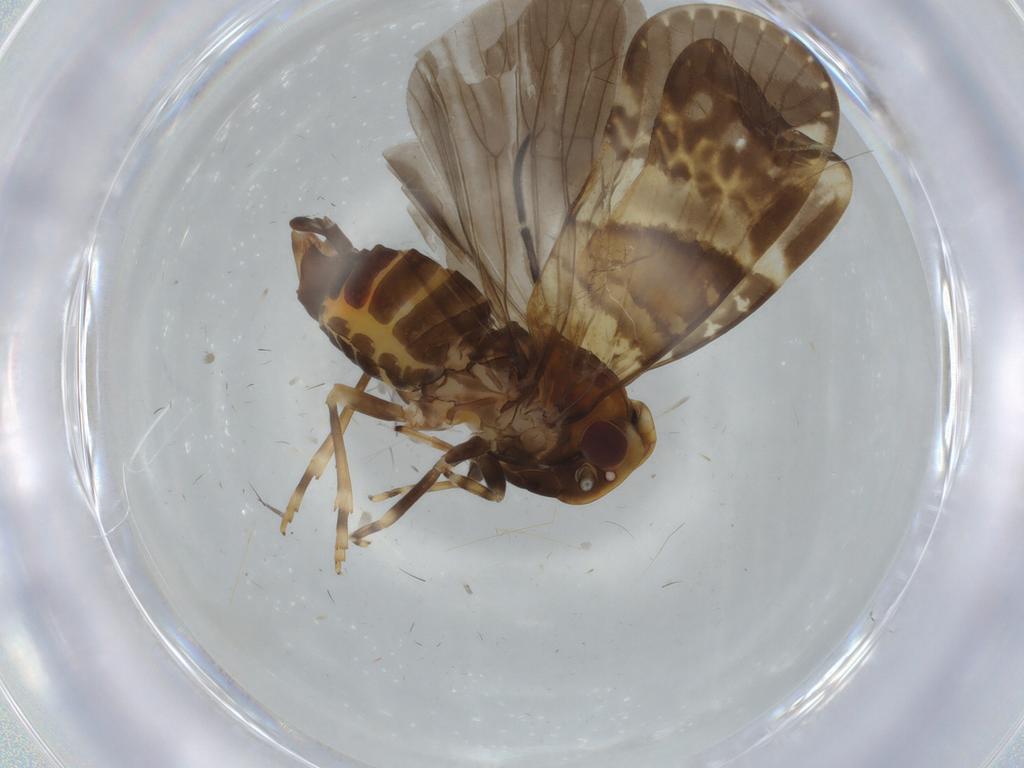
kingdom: Animalia
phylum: Arthropoda
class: Insecta
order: Hemiptera
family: Cixiidae
